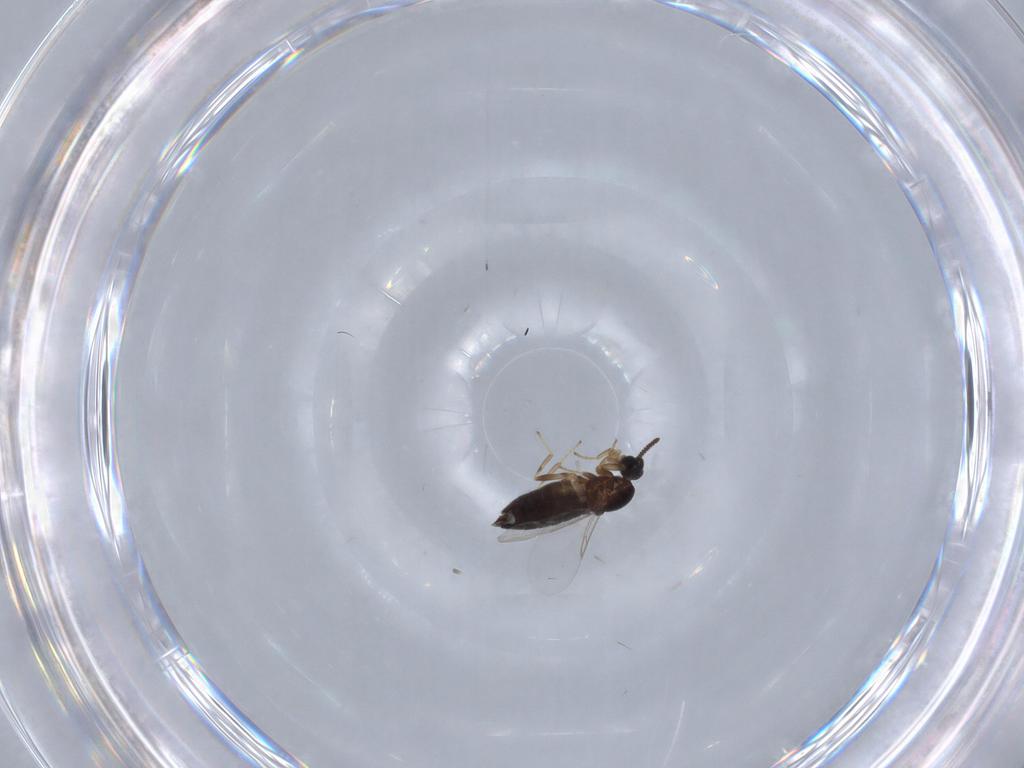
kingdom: Animalia
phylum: Arthropoda
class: Insecta
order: Diptera
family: Scatopsidae
